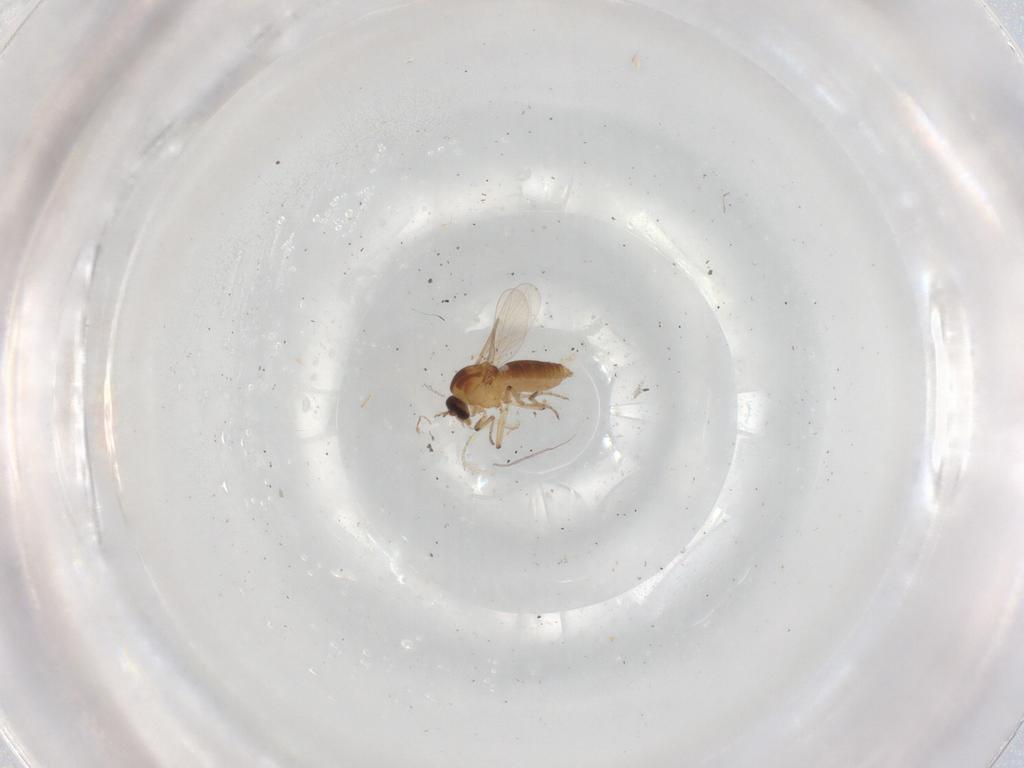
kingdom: Animalia
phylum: Arthropoda
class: Insecta
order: Diptera
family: Ceratopogonidae
